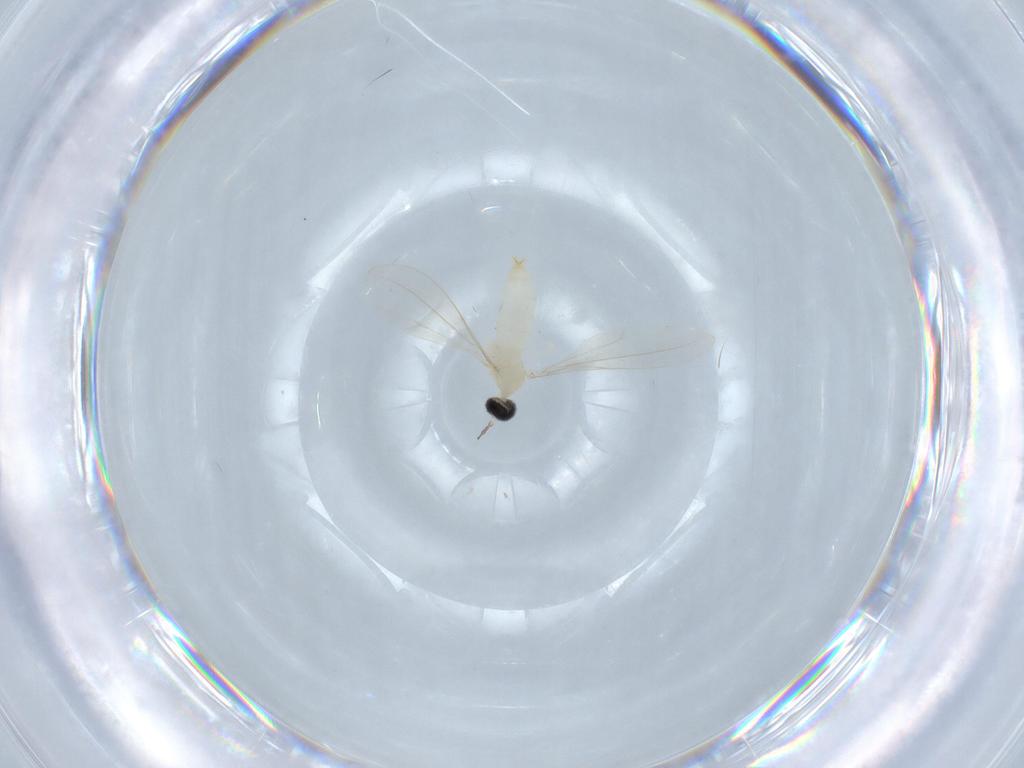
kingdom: Animalia
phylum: Arthropoda
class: Insecta
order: Diptera
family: Cecidomyiidae
